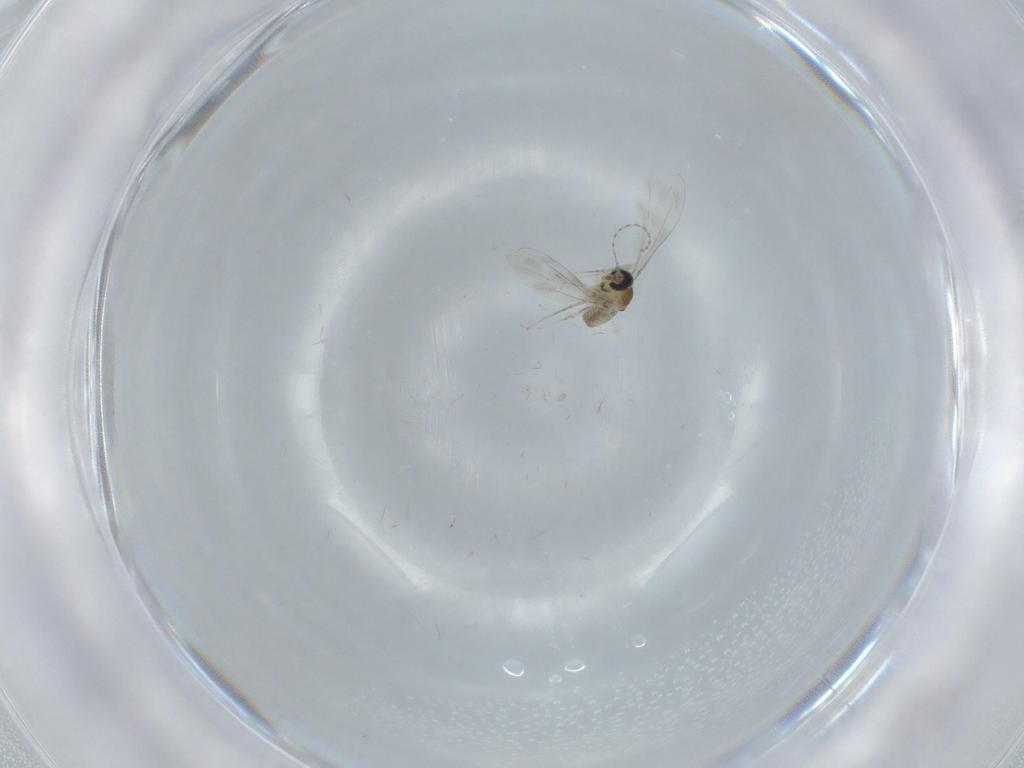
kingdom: Animalia
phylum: Arthropoda
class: Insecta
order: Diptera
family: Cecidomyiidae
